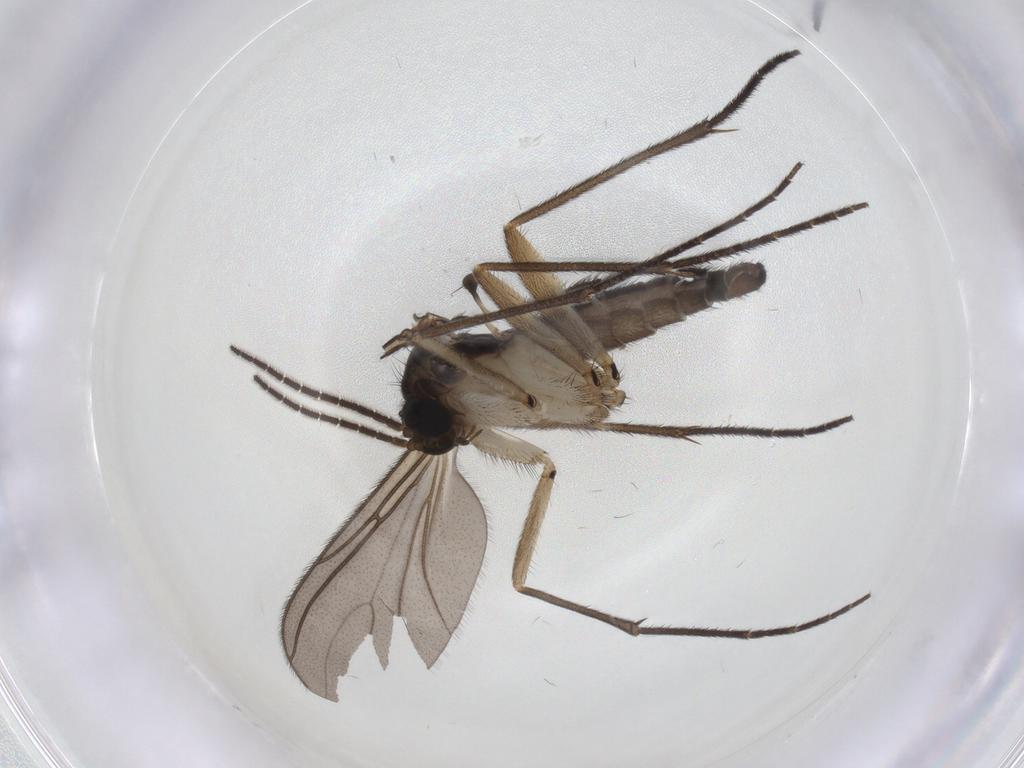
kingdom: Animalia
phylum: Arthropoda
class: Insecta
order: Diptera
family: Sciaridae
